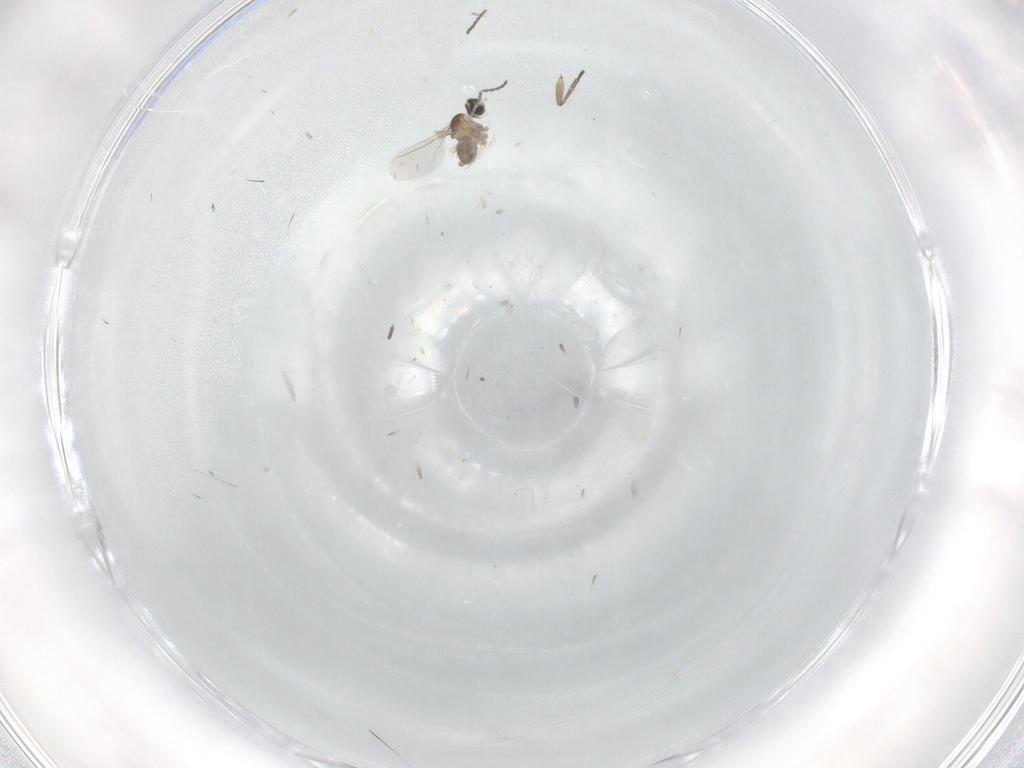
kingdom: Animalia
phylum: Arthropoda
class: Insecta
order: Diptera
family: Cecidomyiidae
